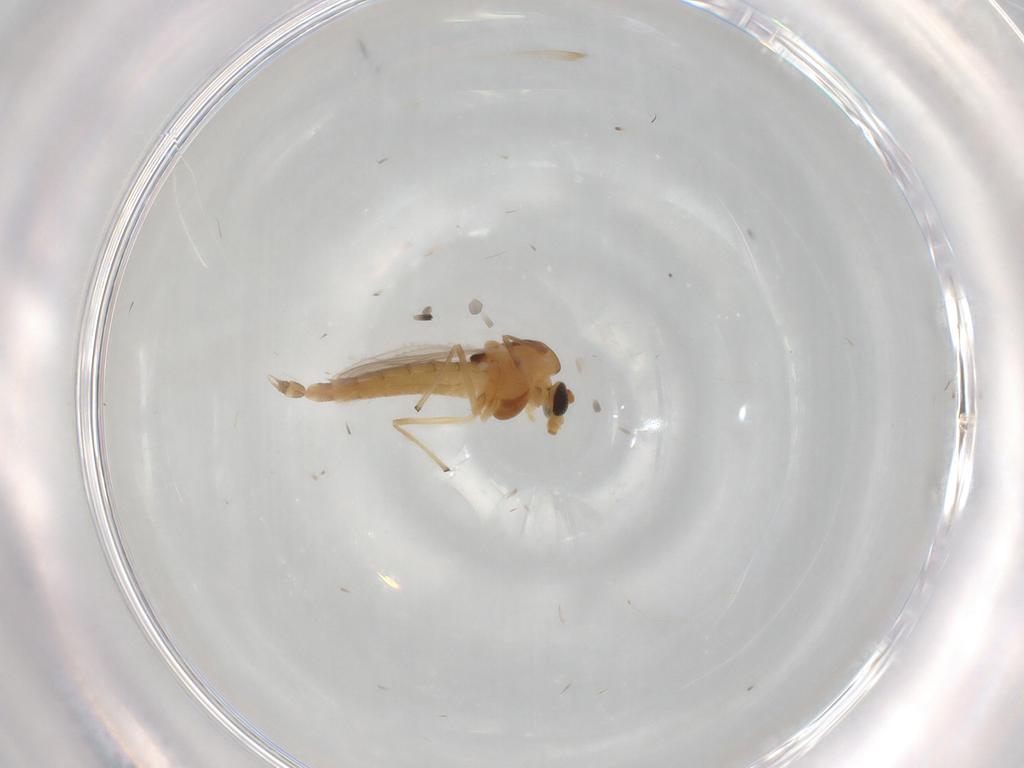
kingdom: Animalia
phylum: Arthropoda
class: Insecta
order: Diptera
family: Chironomidae
